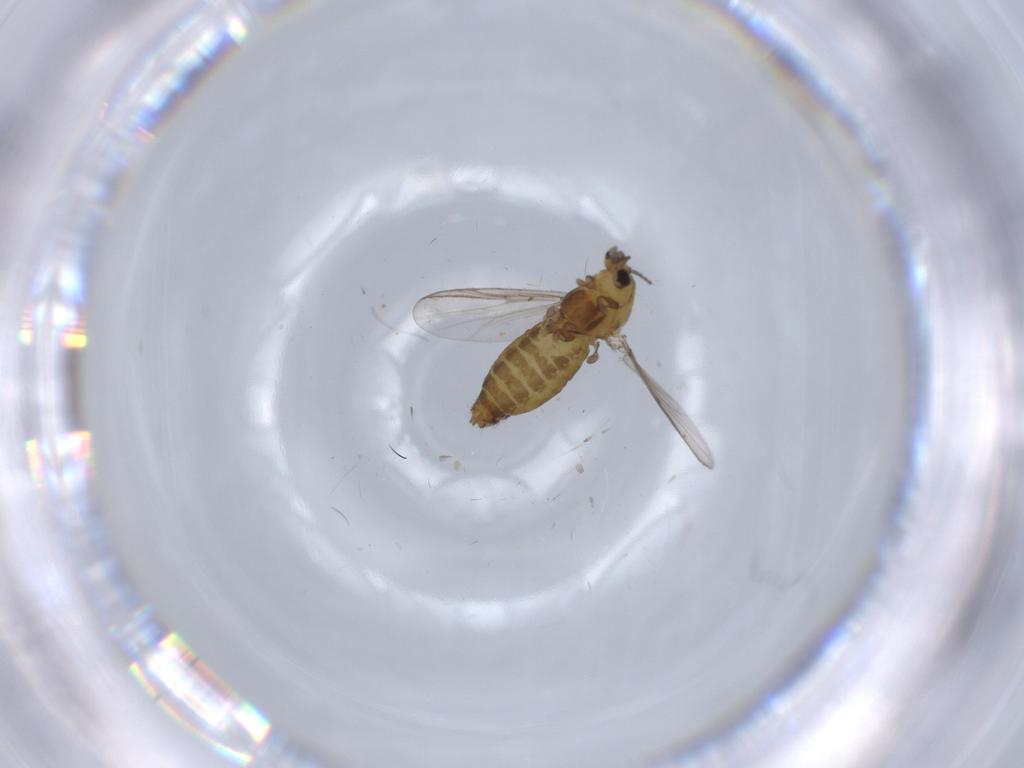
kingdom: Animalia
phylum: Arthropoda
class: Insecta
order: Diptera
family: Chironomidae
